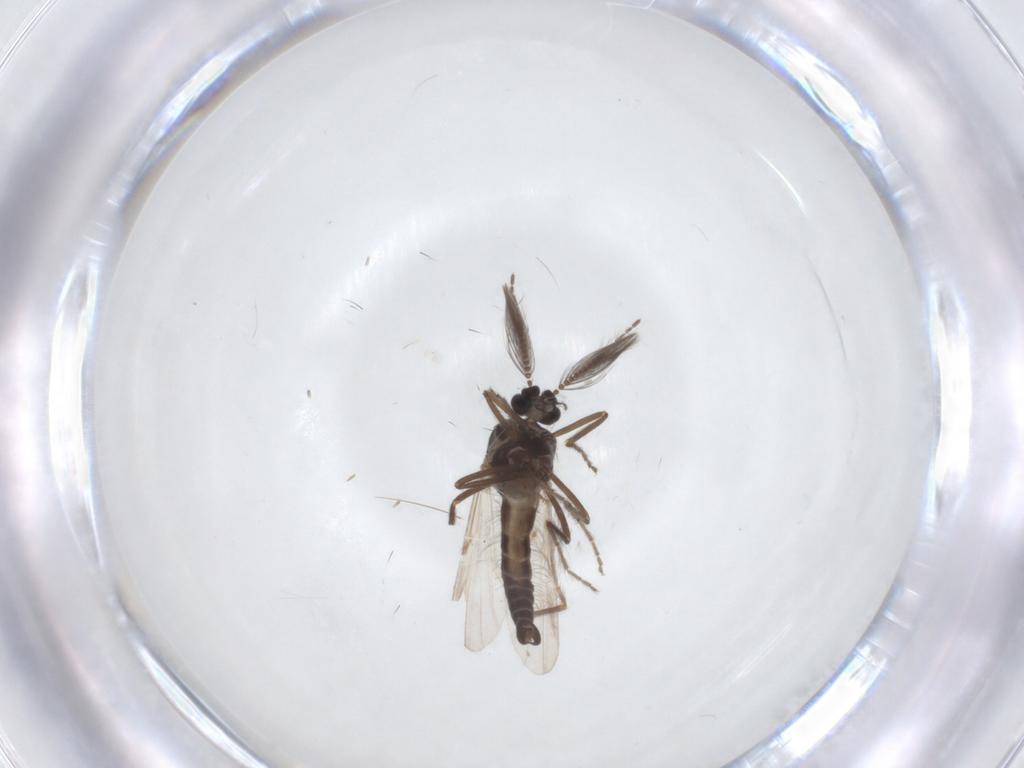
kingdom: Animalia
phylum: Arthropoda
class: Insecta
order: Diptera
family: Ceratopogonidae
